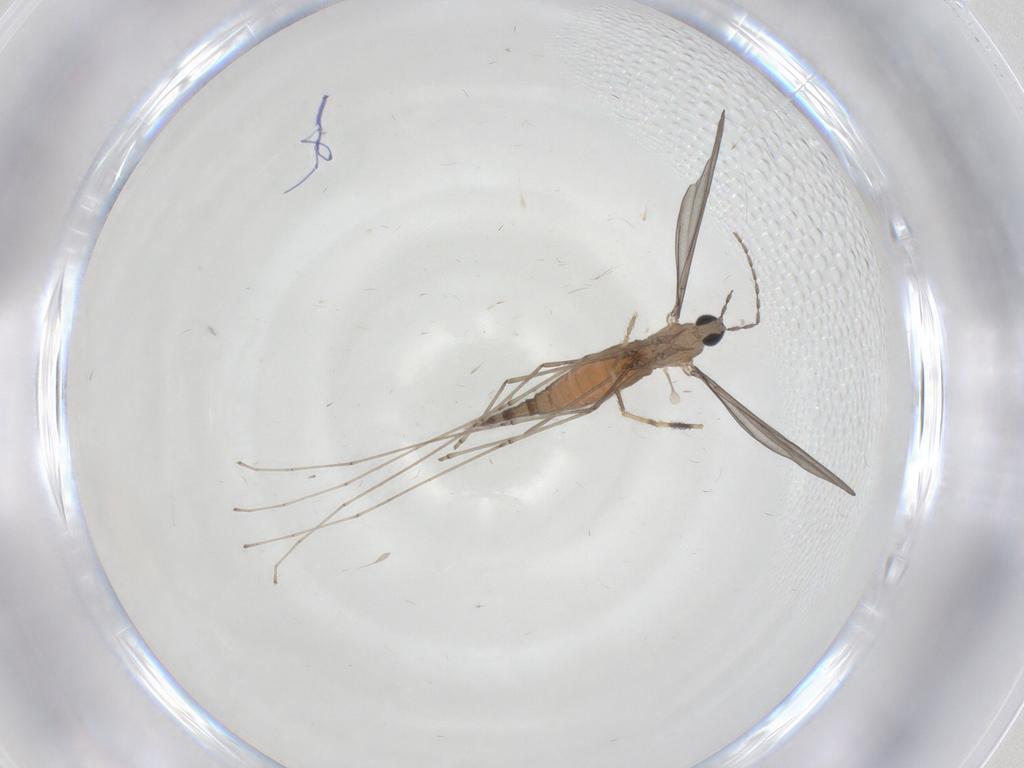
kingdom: Animalia
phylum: Arthropoda
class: Insecta
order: Diptera
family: Chironomidae
